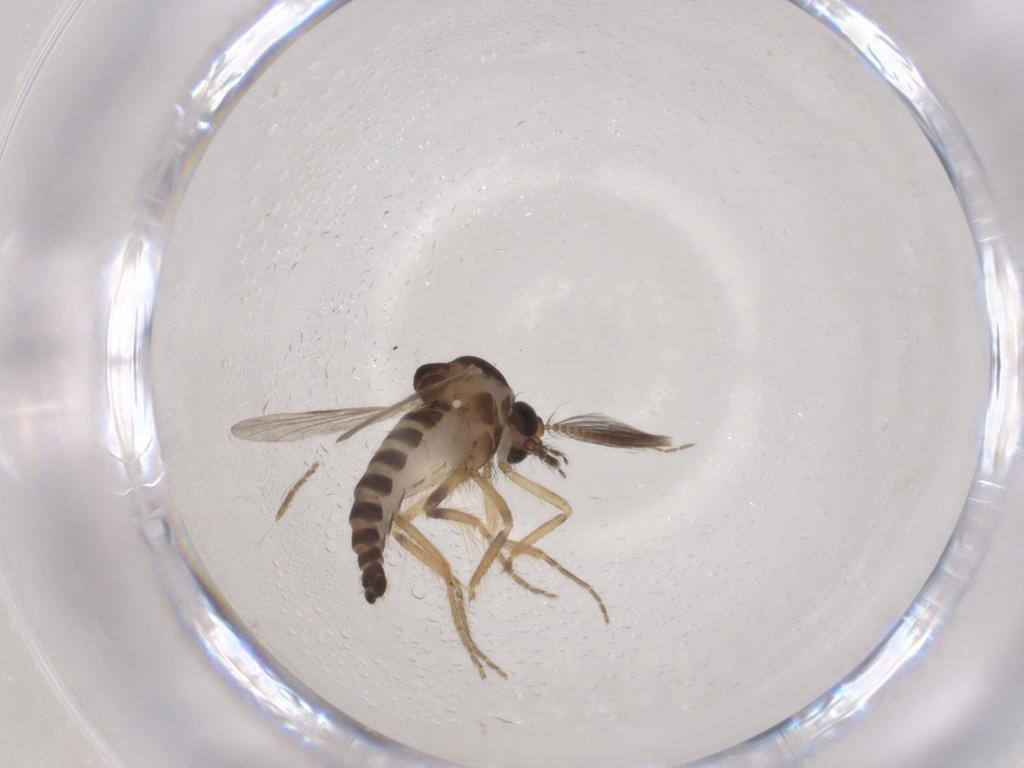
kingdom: Animalia
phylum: Arthropoda
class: Insecta
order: Diptera
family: Ceratopogonidae
